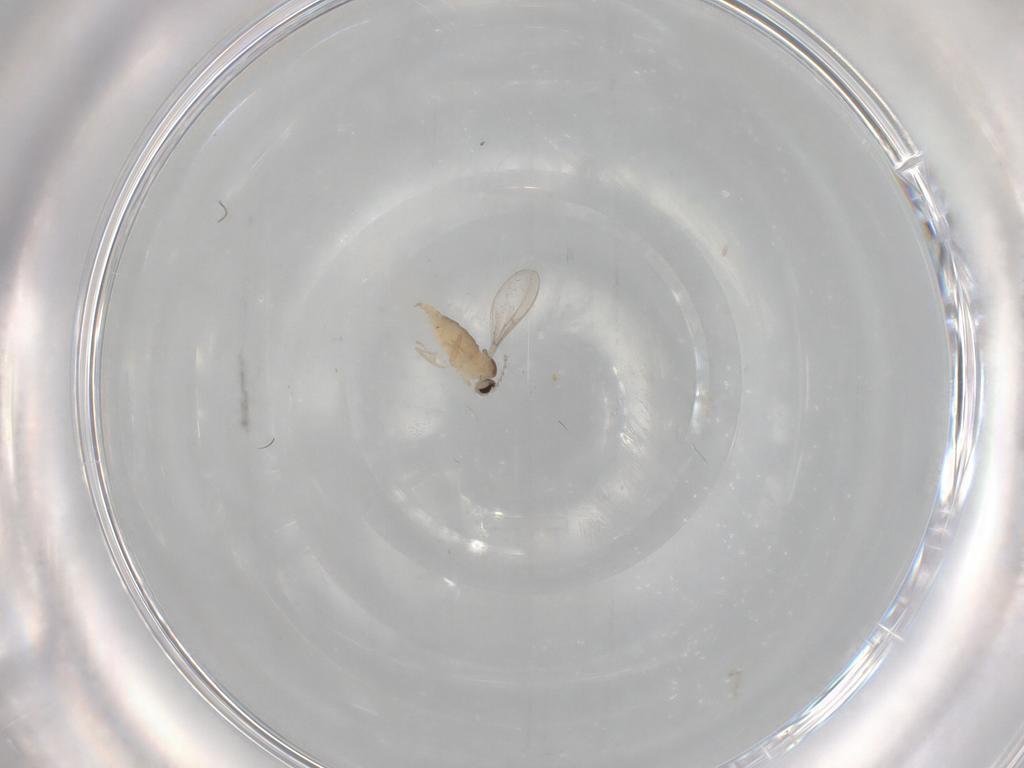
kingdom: Animalia
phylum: Arthropoda
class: Insecta
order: Diptera
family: Cecidomyiidae
